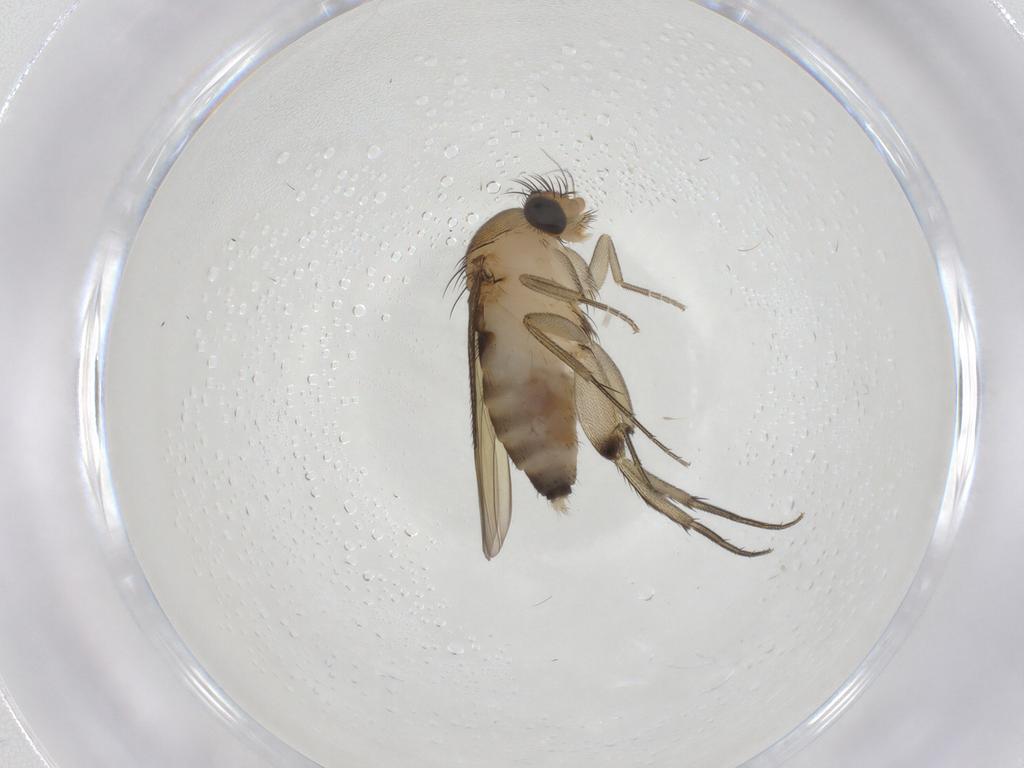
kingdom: Animalia
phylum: Arthropoda
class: Insecta
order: Diptera
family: Phoridae
